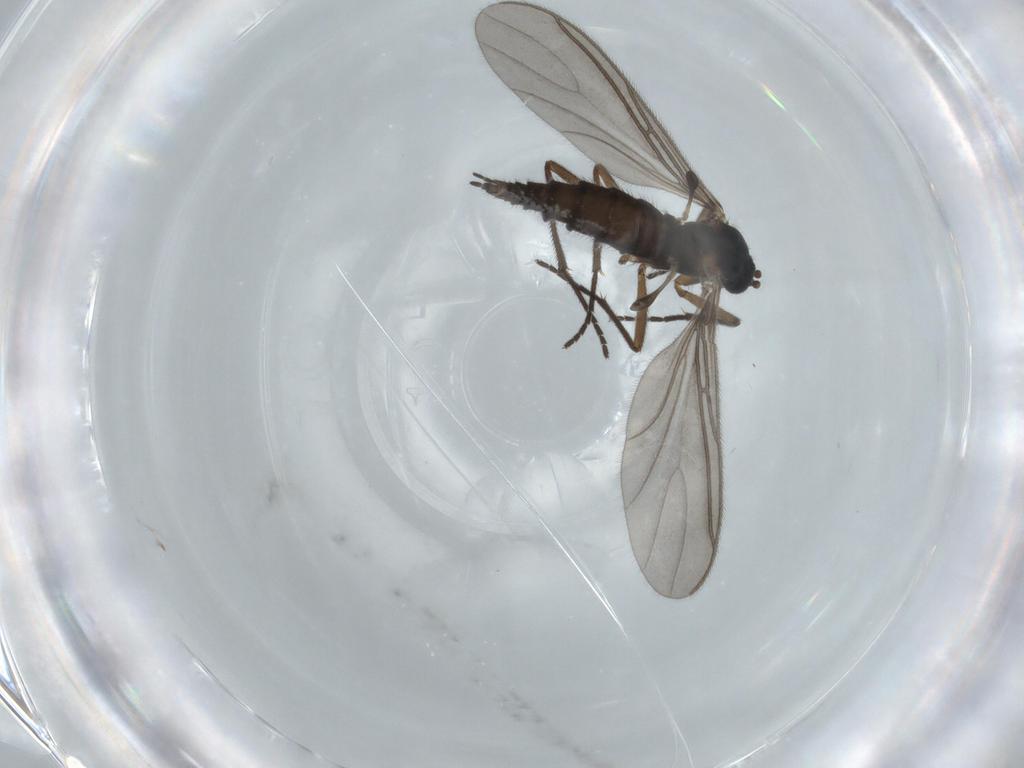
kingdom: Animalia
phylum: Arthropoda
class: Insecta
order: Diptera
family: Sciaridae
